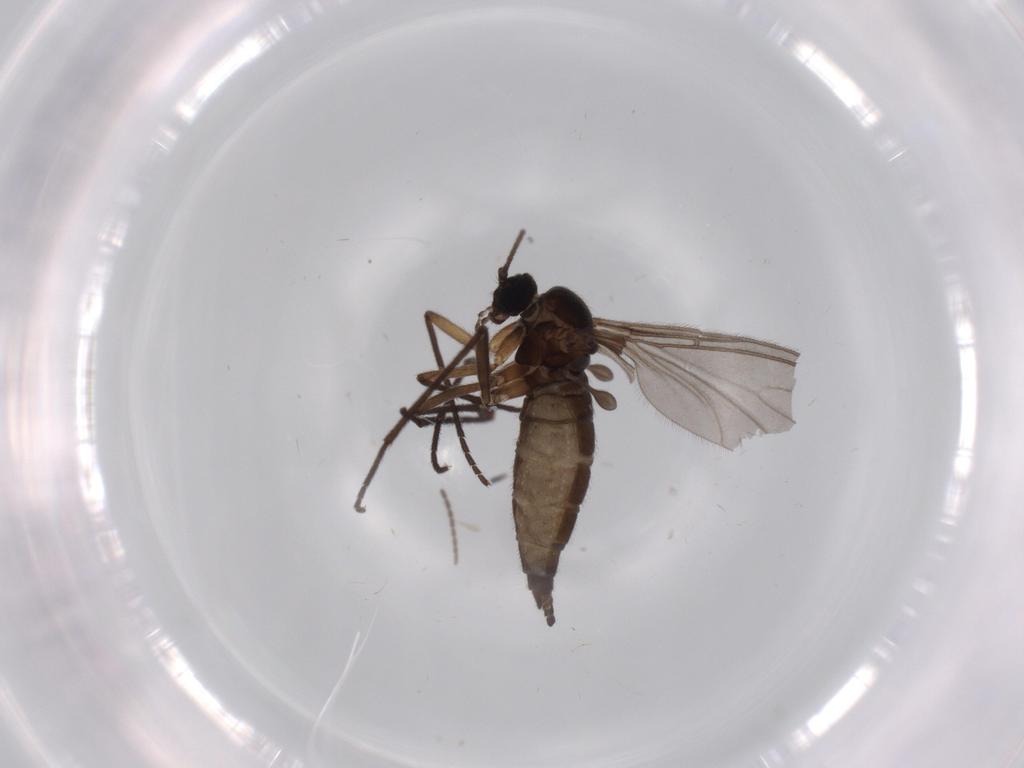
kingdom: Animalia
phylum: Arthropoda
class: Insecta
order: Diptera
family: Sciaridae
